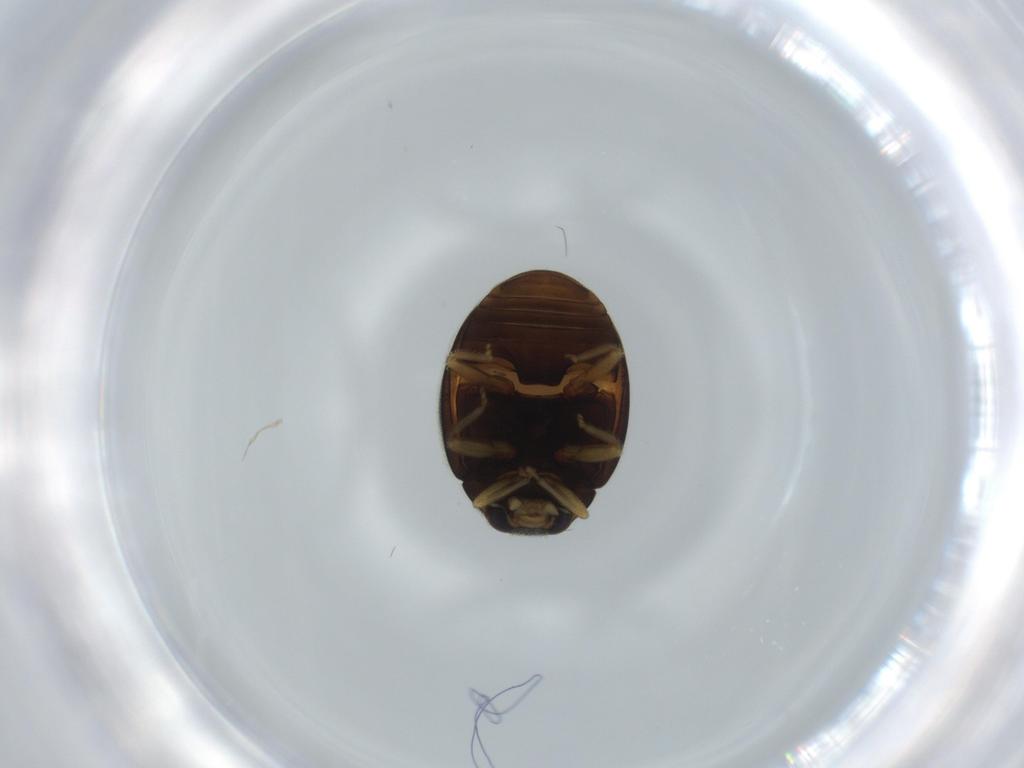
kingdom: Animalia
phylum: Arthropoda
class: Insecta
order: Coleoptera
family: Coccinellidae
